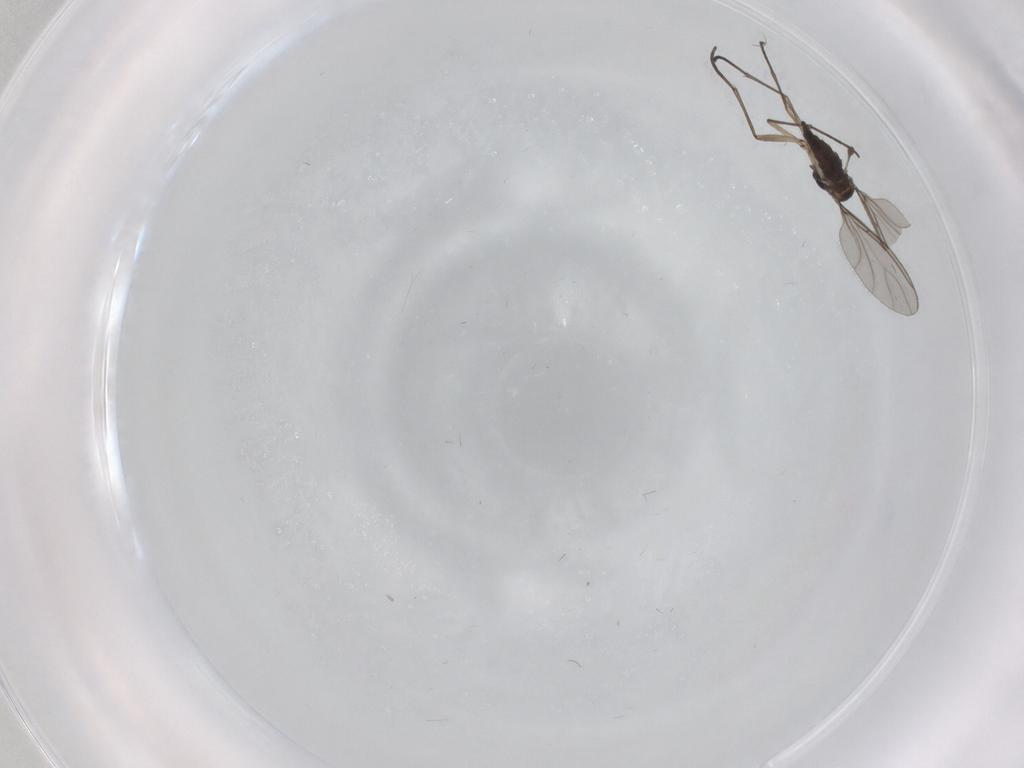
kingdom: Animalia
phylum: Arthropoda
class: Insecta
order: Diptera
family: Sciaridae
